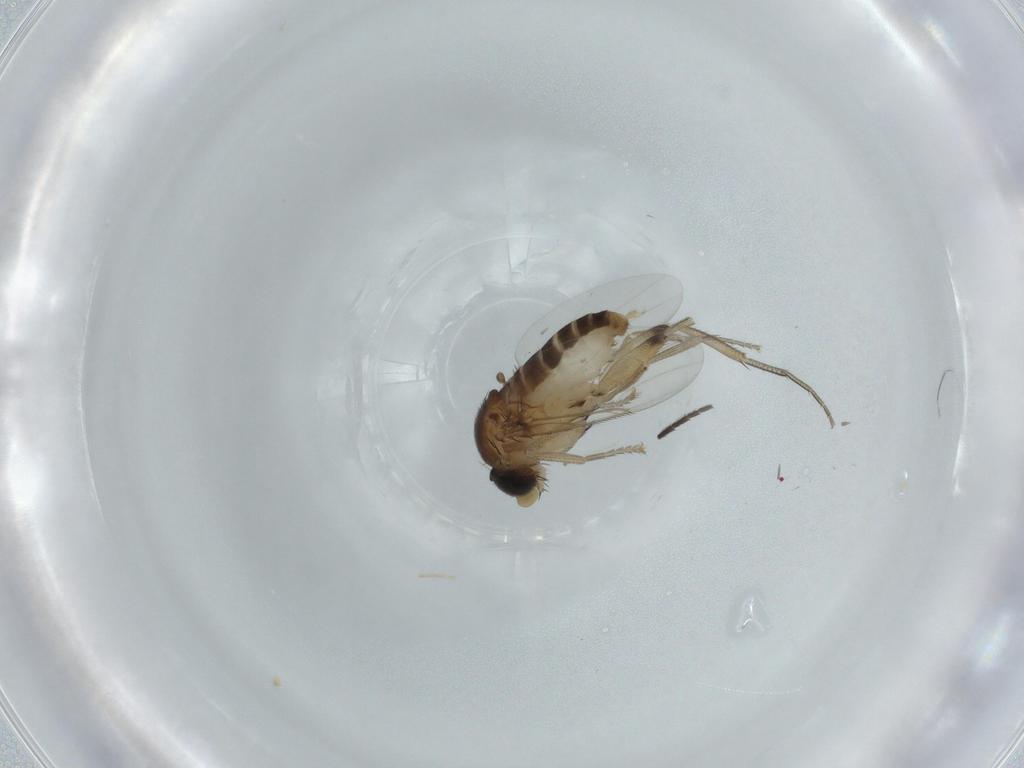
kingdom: Animalia
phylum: Arthropoda
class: Insecta
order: Diptera
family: Phoridae
